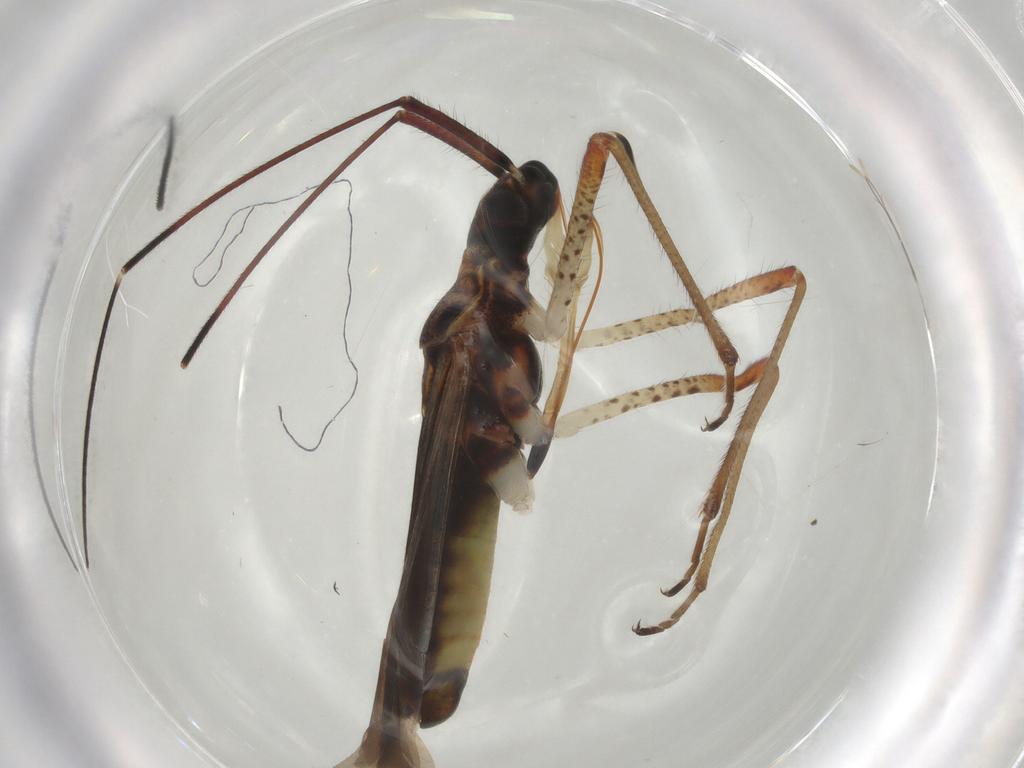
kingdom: Animalia
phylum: Arthropoda
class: Insecta
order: Hemiptera
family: Miridae
